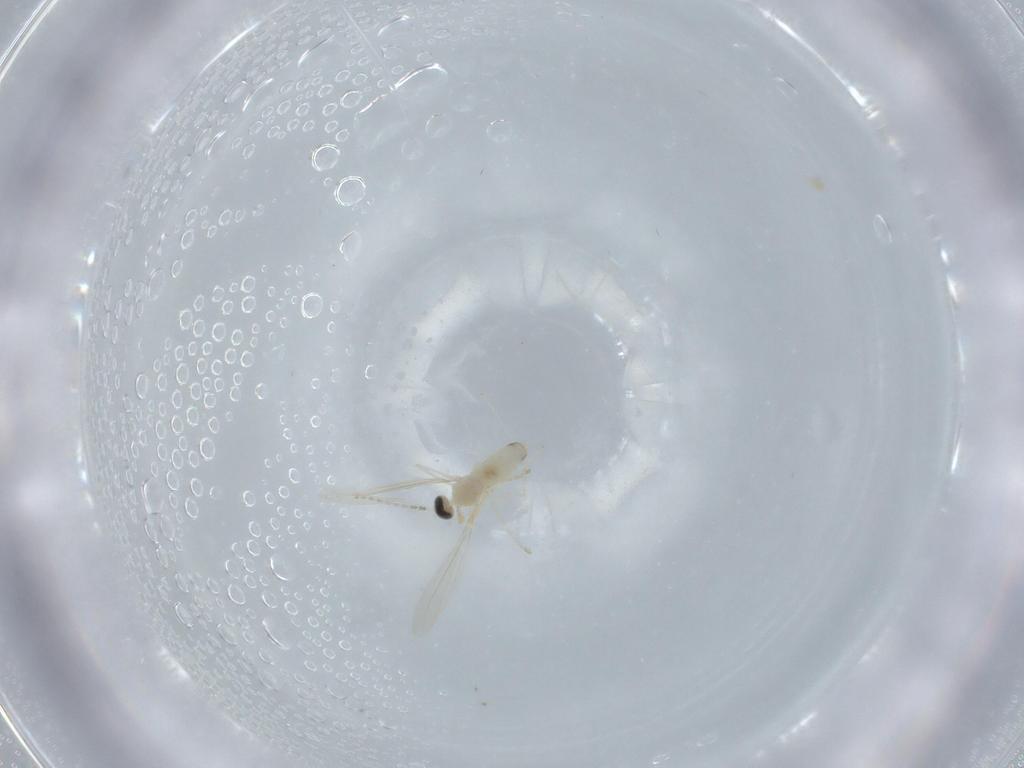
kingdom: Animalia
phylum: Arthropoda
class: Insecta
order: Diptera
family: Cecidomyiidae
